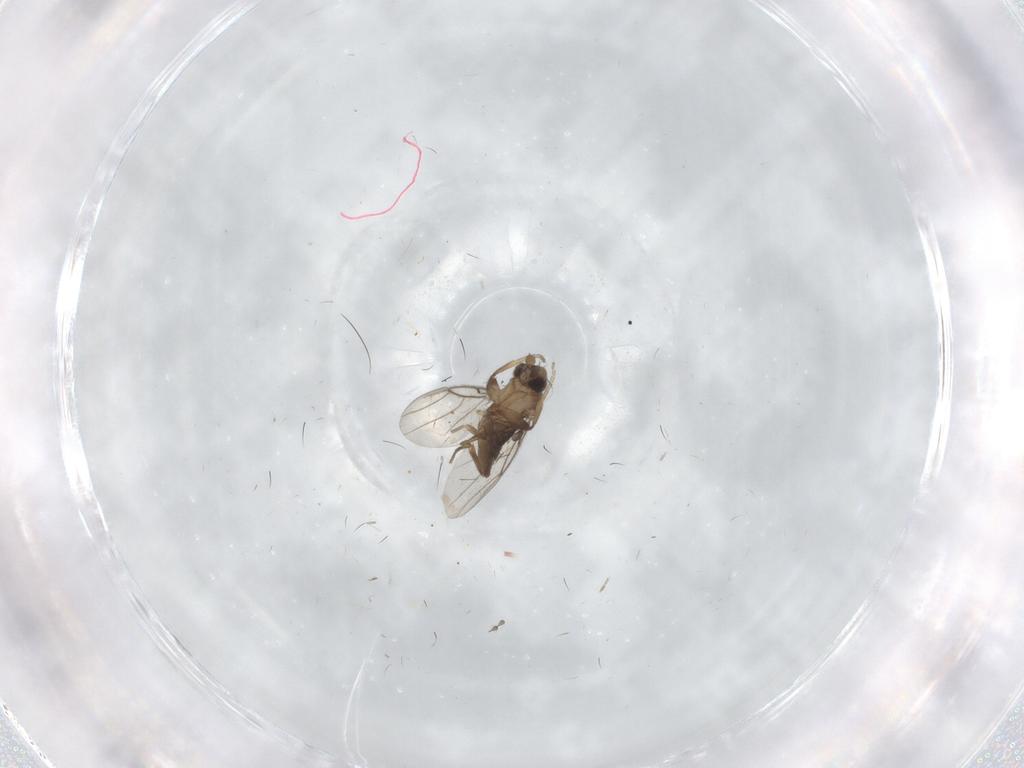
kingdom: Animalia
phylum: Arthropoda
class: Insecta
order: Diptera
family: Phoridae
